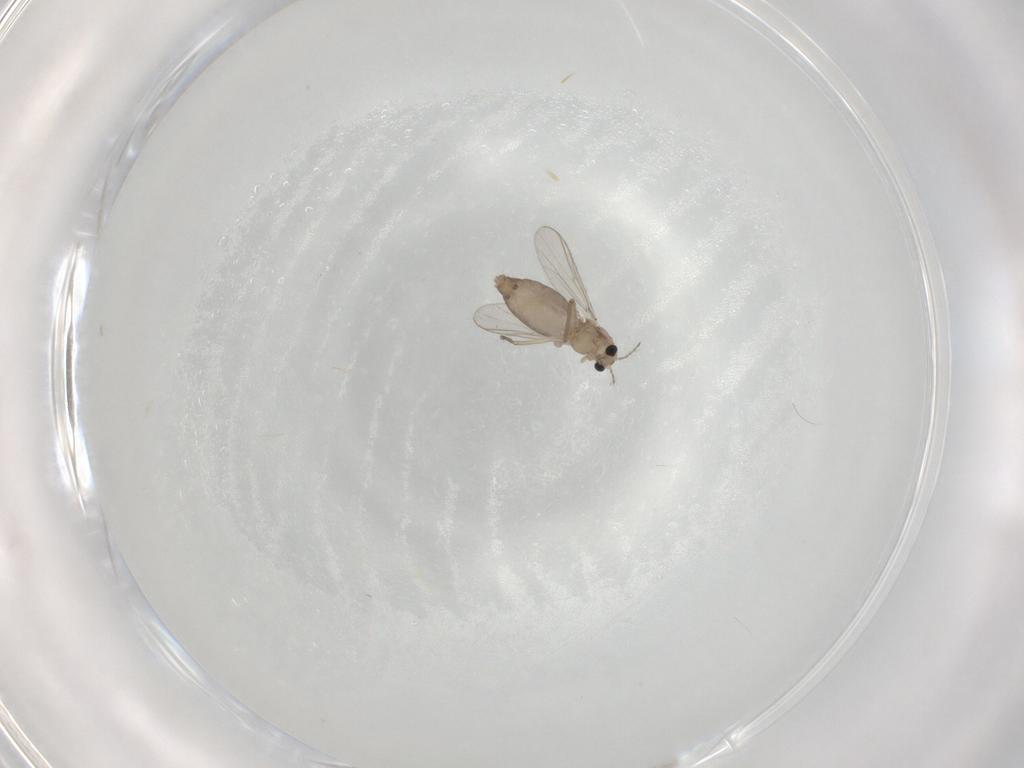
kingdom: Animalia
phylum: Arthropoda
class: Insecta
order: Diptera
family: Chironomidae
